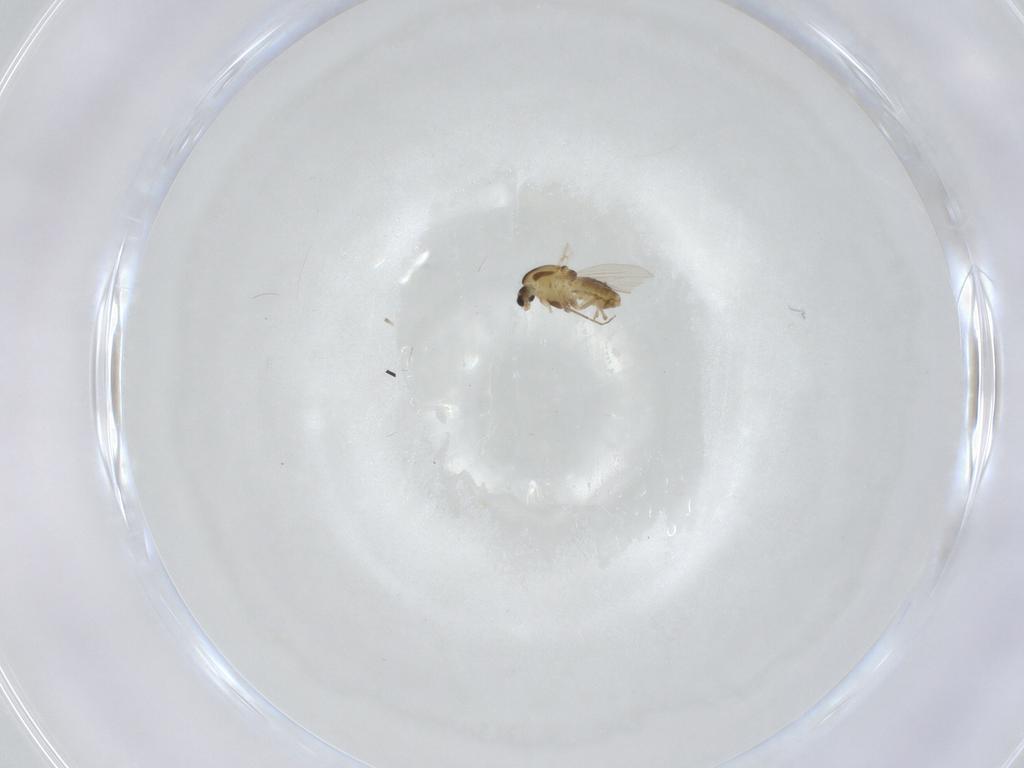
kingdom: Animalia
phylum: Arthropoda
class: Insecta
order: Diptera
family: Chironomidae
